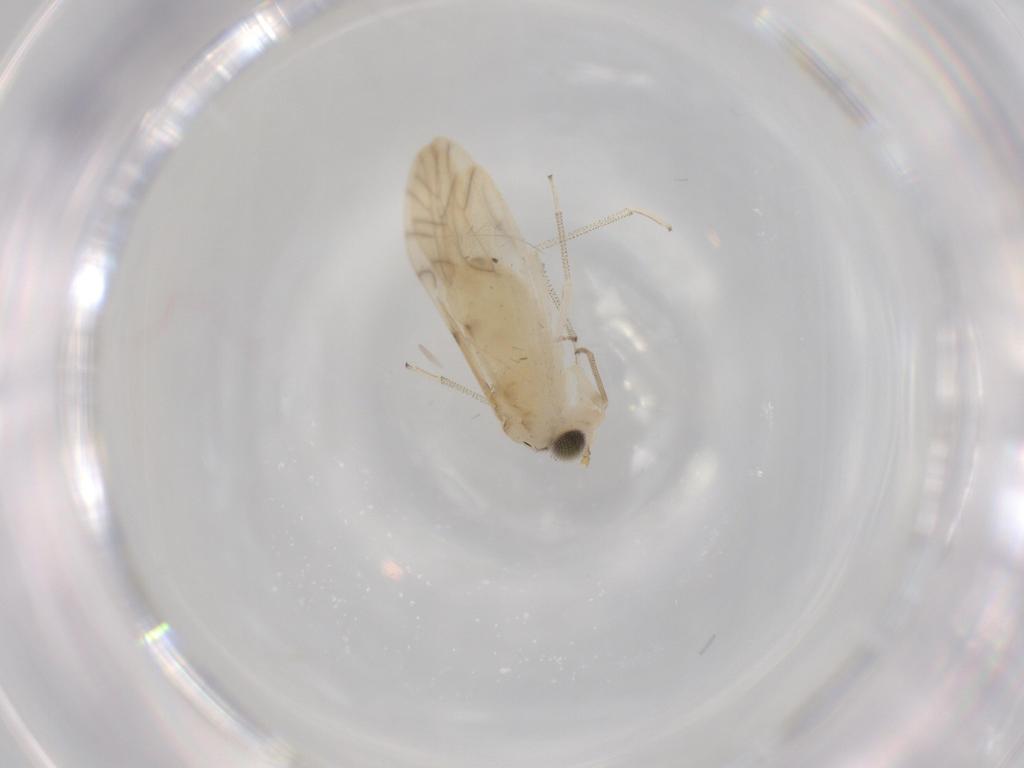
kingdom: Animalia
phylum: Arthropoda
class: Insecta
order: Psocodea
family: Caeciliusidae
